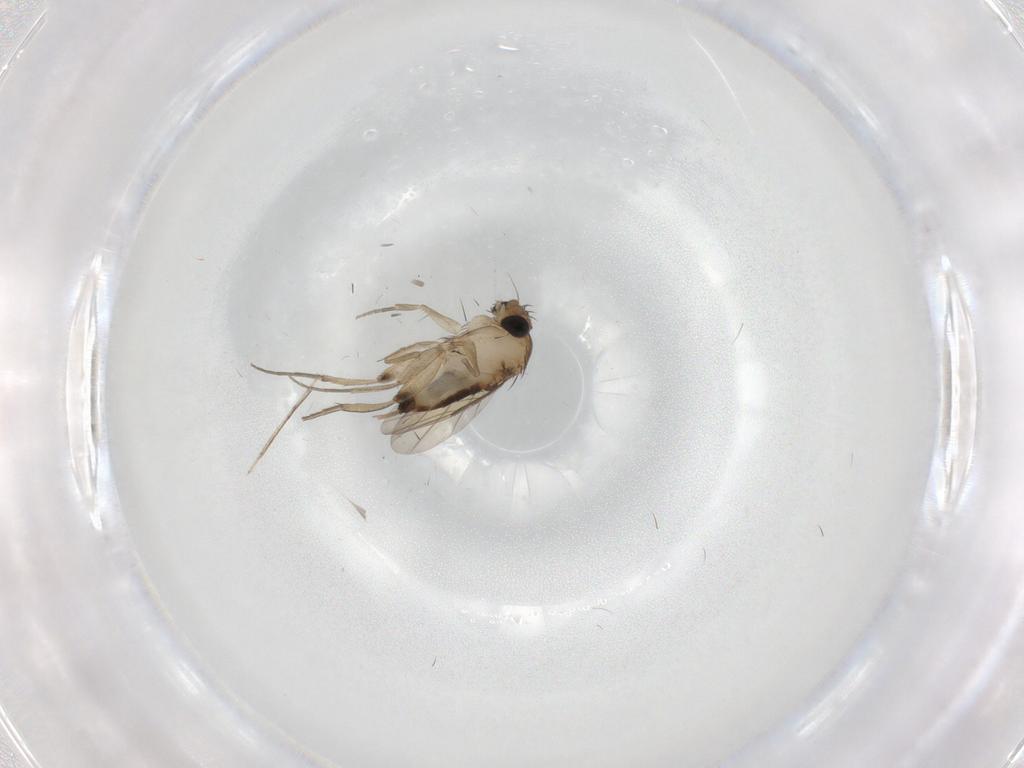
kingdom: Animalia
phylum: Arthropoda
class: Insecta
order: Diptera
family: Phoridae
